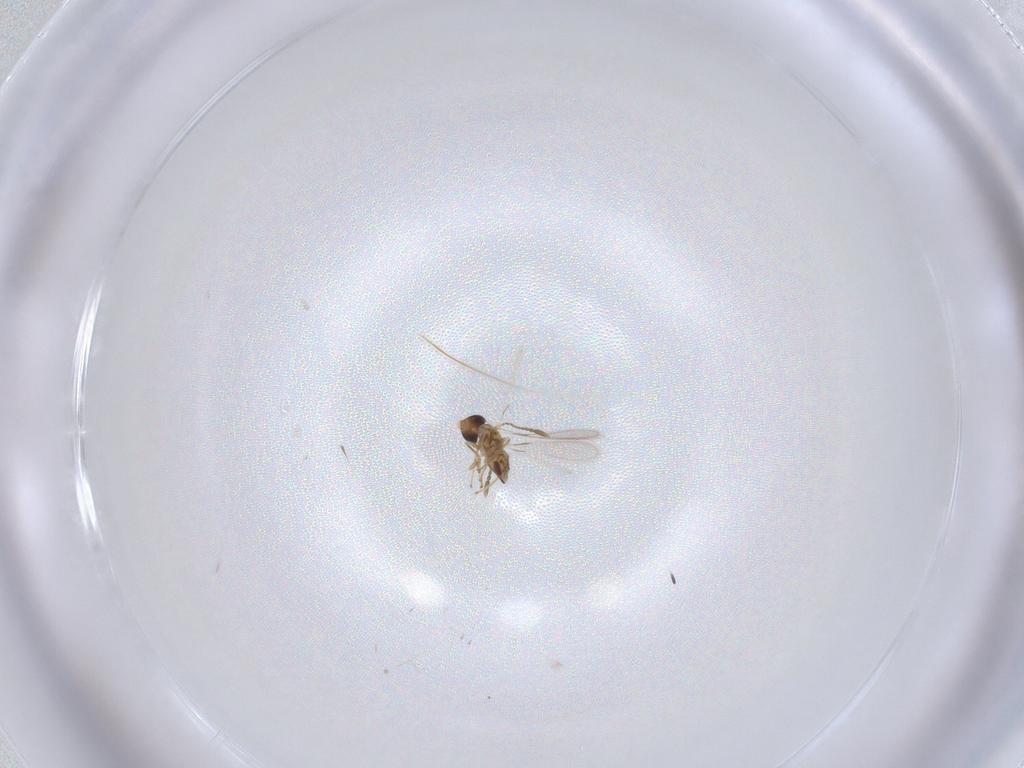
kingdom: Animalia
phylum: Arthropoda
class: Insecta
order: Hymenoptera
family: Mymaridae
